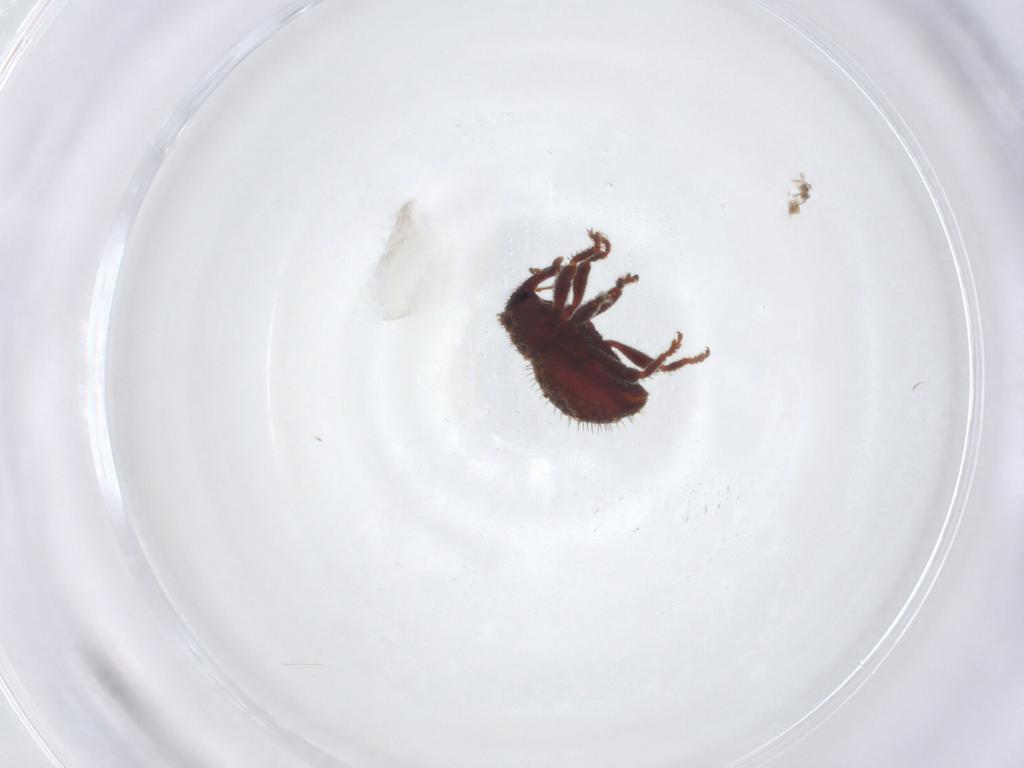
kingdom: Animalia
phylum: Arthropoda
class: Insecta
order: Coleoptera
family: Curculionidae
